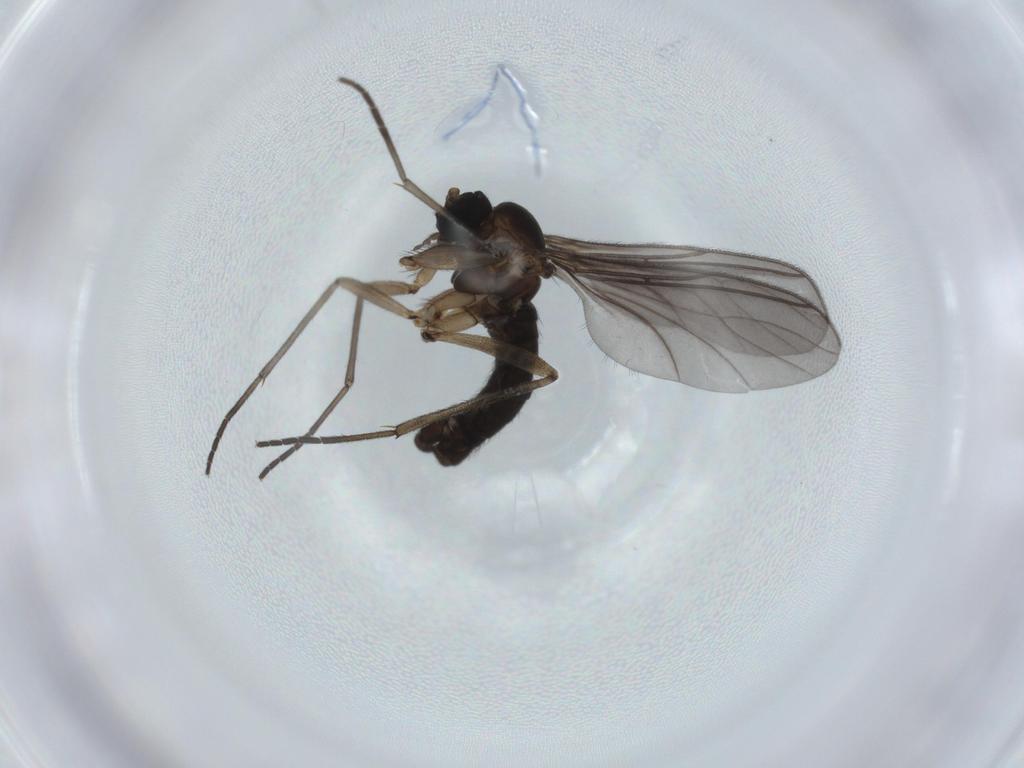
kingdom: Animalia
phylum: Arthropoda
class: Insecta
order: Diptera
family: Sciaridae
